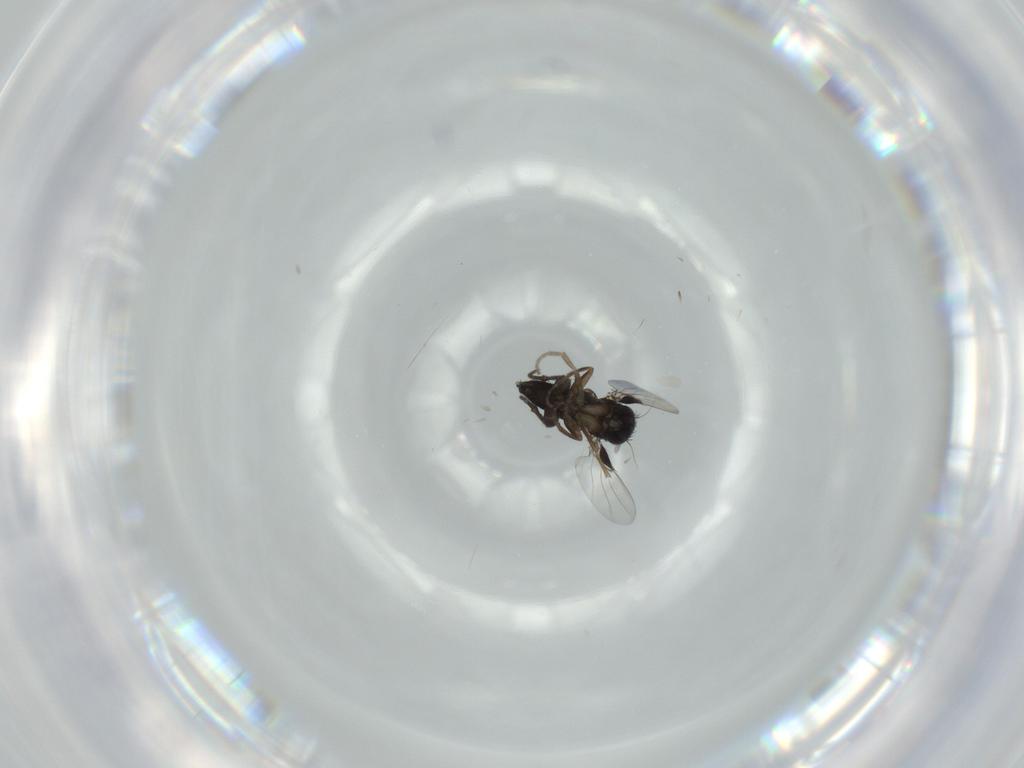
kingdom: Animalia
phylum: Arthropoda
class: Insecta
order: Diptera
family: Phoridae
